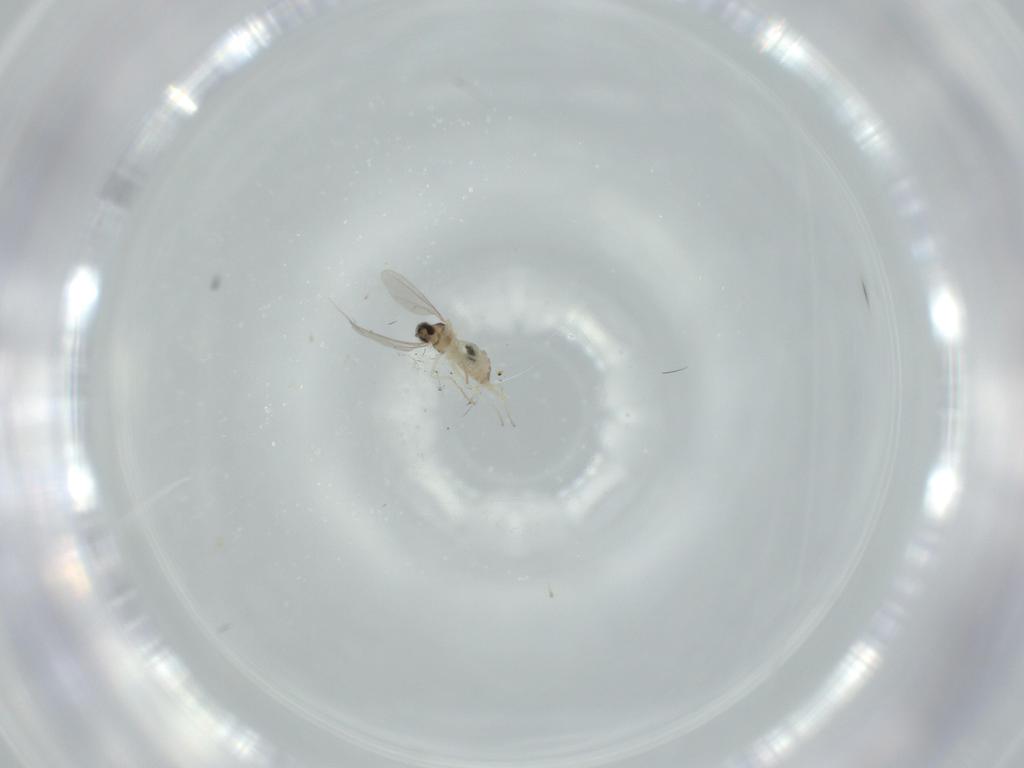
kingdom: Animalia
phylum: Arthropoda
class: Insecta
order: Diptera
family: Cecidomyiidae
